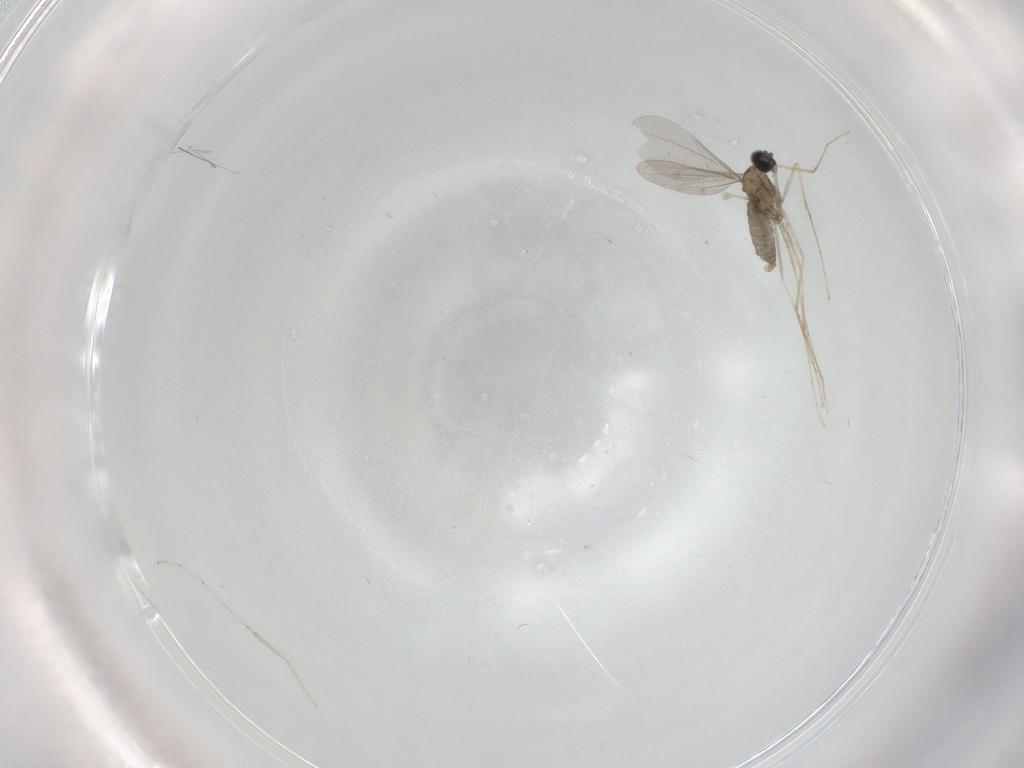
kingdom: Animalia
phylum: Arthropoda
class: Insecta
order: Diptera
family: Cecidomyiidae
